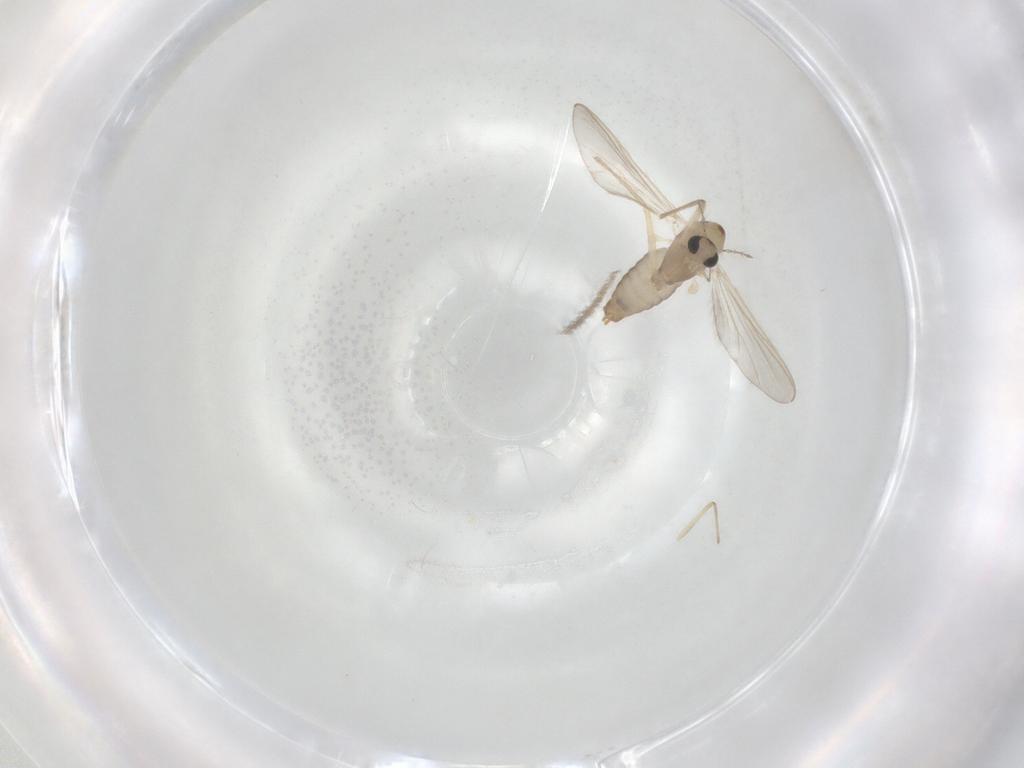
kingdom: Animalia
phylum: Arthropoda
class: Insecta
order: Diptera
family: Chironomidae
